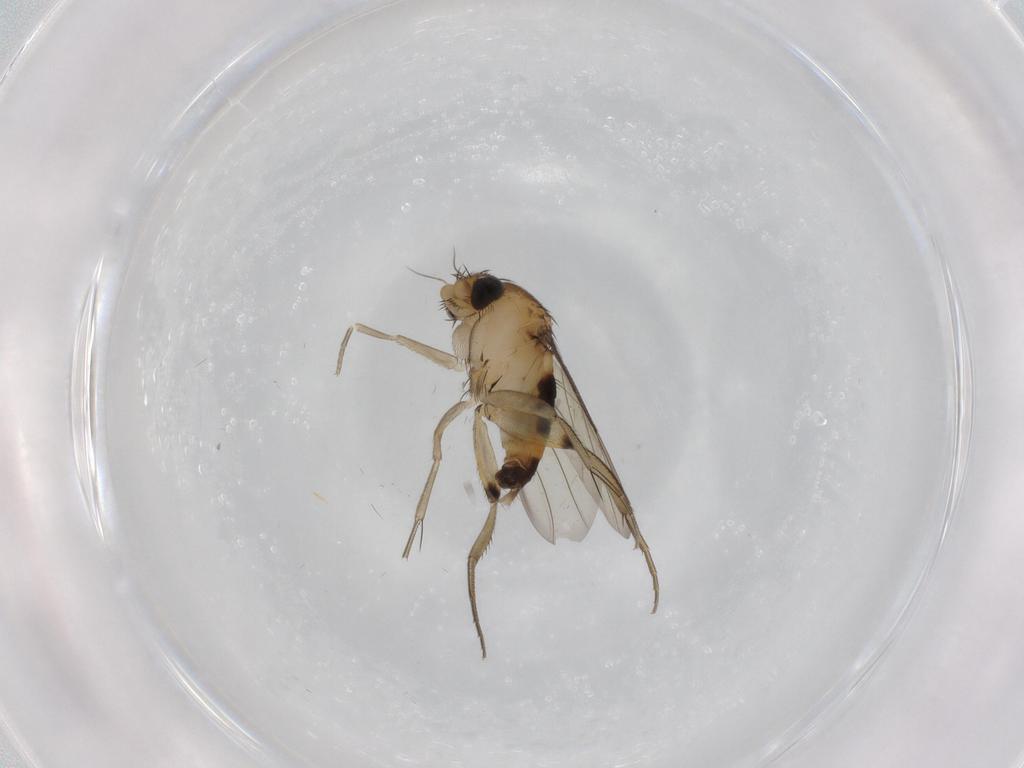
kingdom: Animalia
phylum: Arthropoda
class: Insecta
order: Diptera
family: Phoridae
